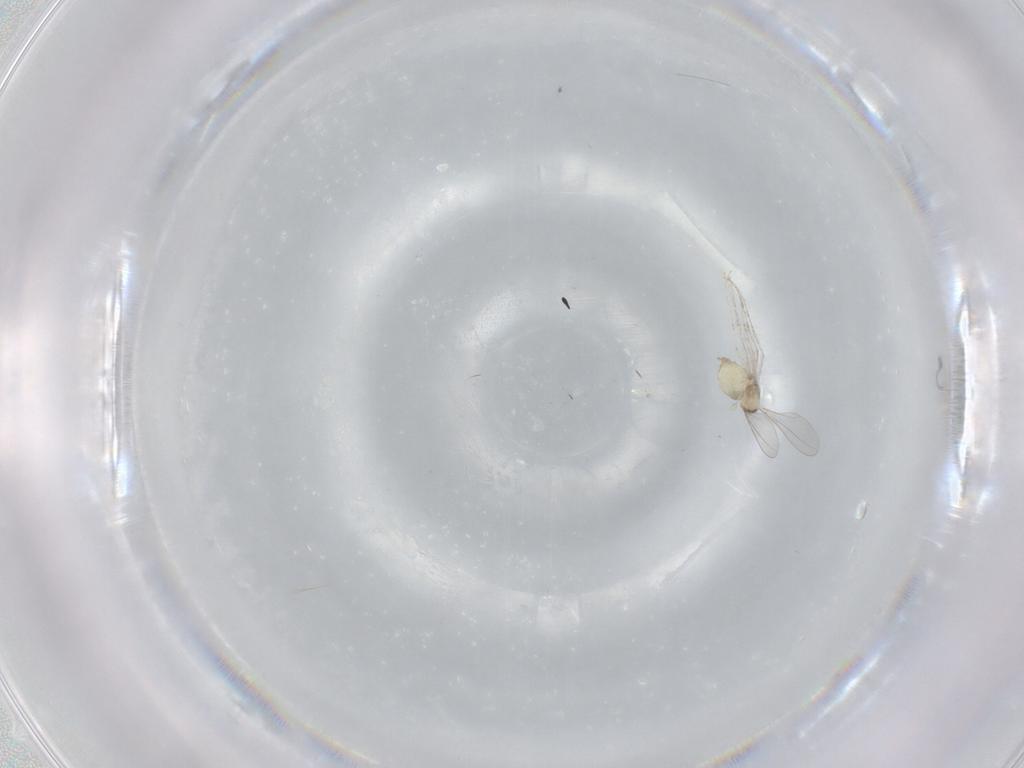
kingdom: Animalia
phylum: Arthropoda
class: Insecta
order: Diptera
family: Cecidomyiidae
